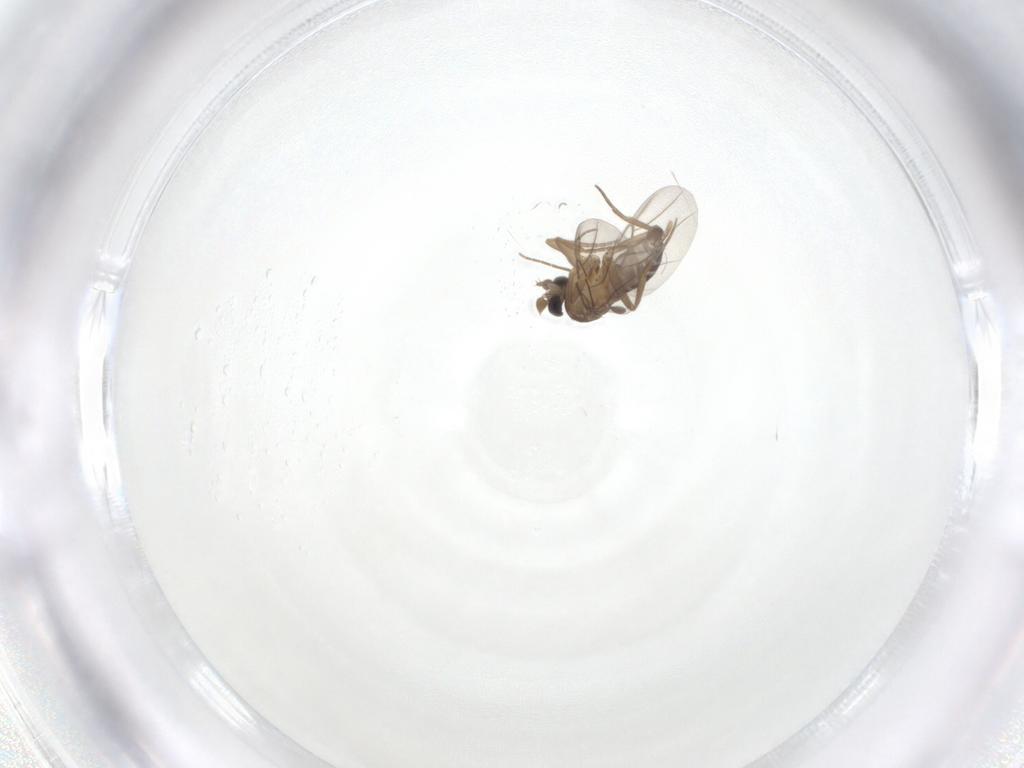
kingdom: Animalia
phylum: Arthropoda
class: Insecta
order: Diptera
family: Phoridae
